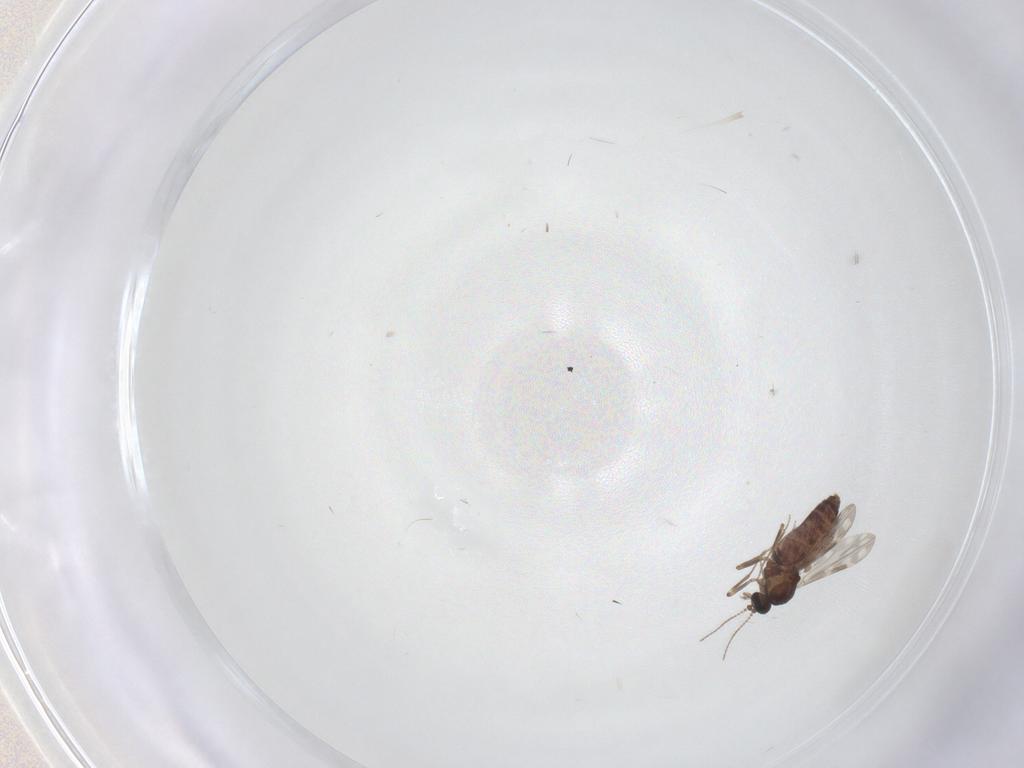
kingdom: Animalia
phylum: Arthropoda
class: Insecta
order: Diptera
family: Ceratopogonidae
